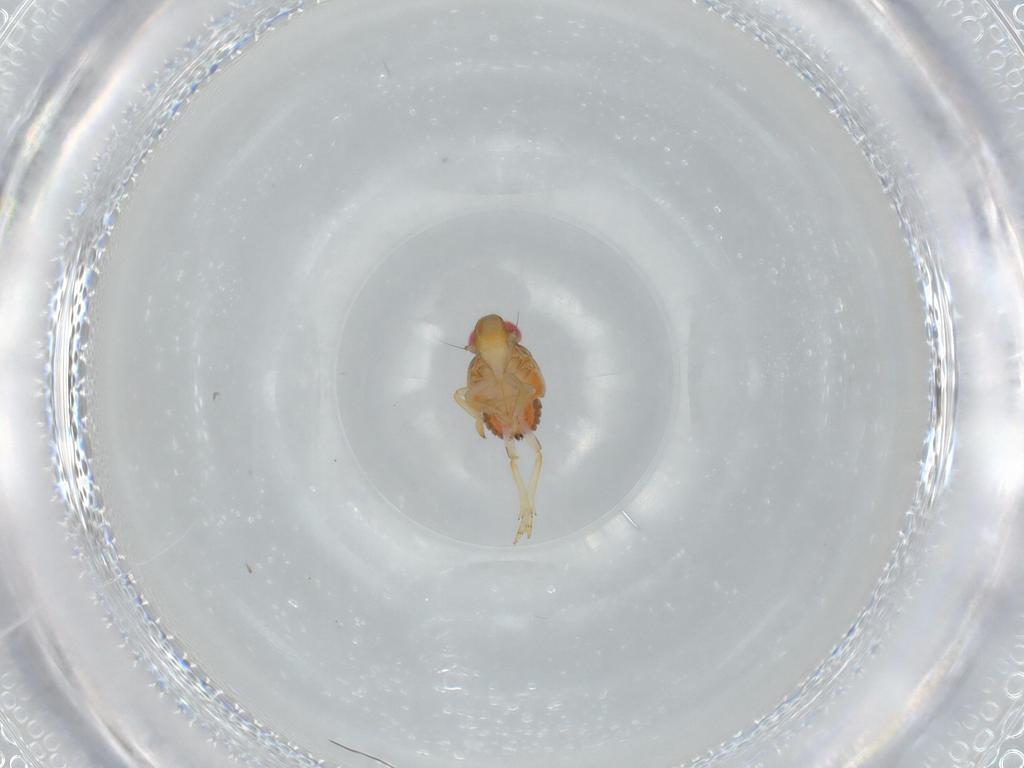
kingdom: Animalia
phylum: Arthropoda
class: Insecta
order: Hemiptera
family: Issidae
